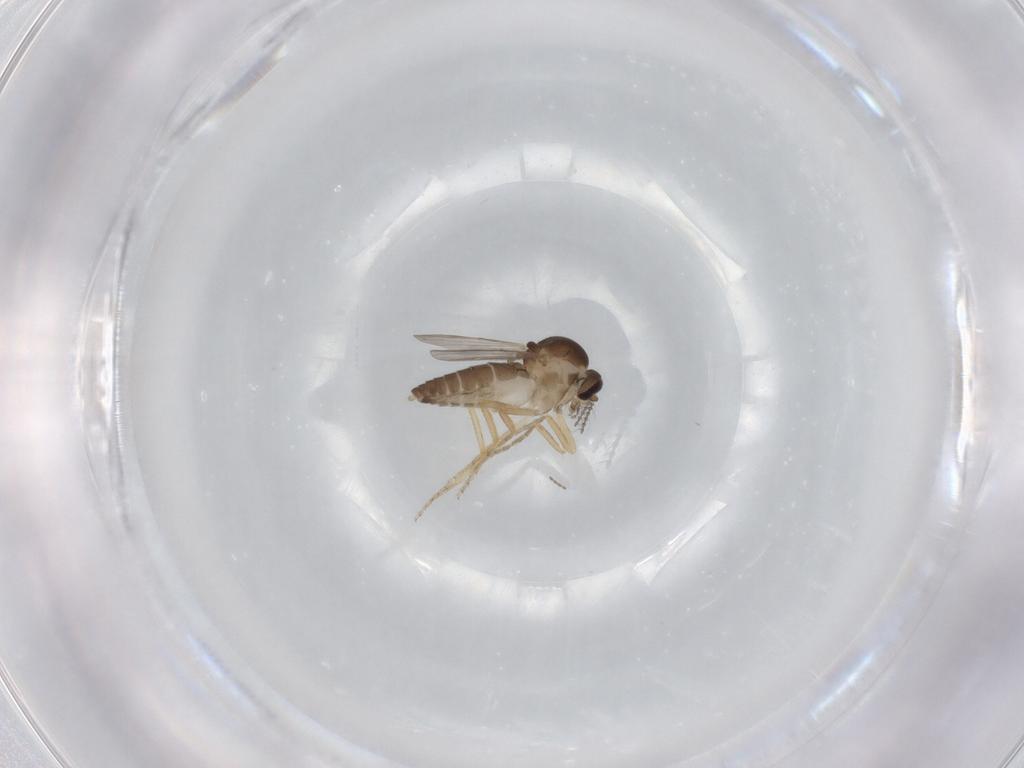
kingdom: Animalia
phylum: Arthropoda
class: Insecta
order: Diptera
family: Ceratopogonidae
